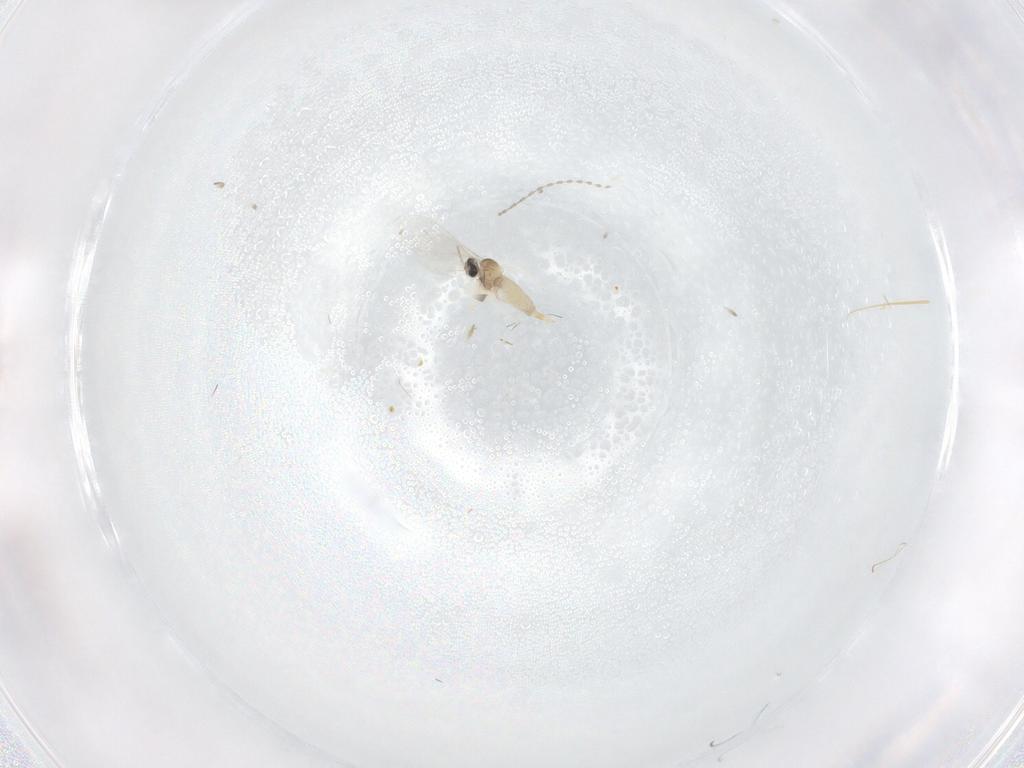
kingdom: Animalia
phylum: Arthropoda
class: Insecta
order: Diptera
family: Cecidomyiidae
